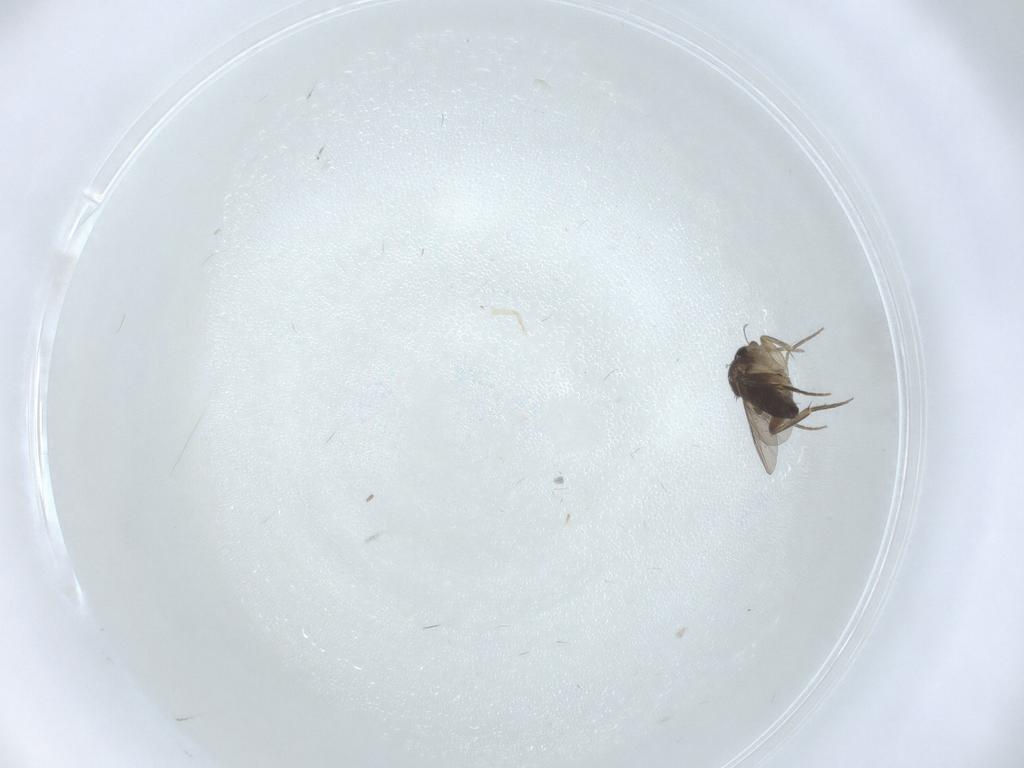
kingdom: Animalia
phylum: Arthropoda
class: Insecta
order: Diptera
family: Phoridae
